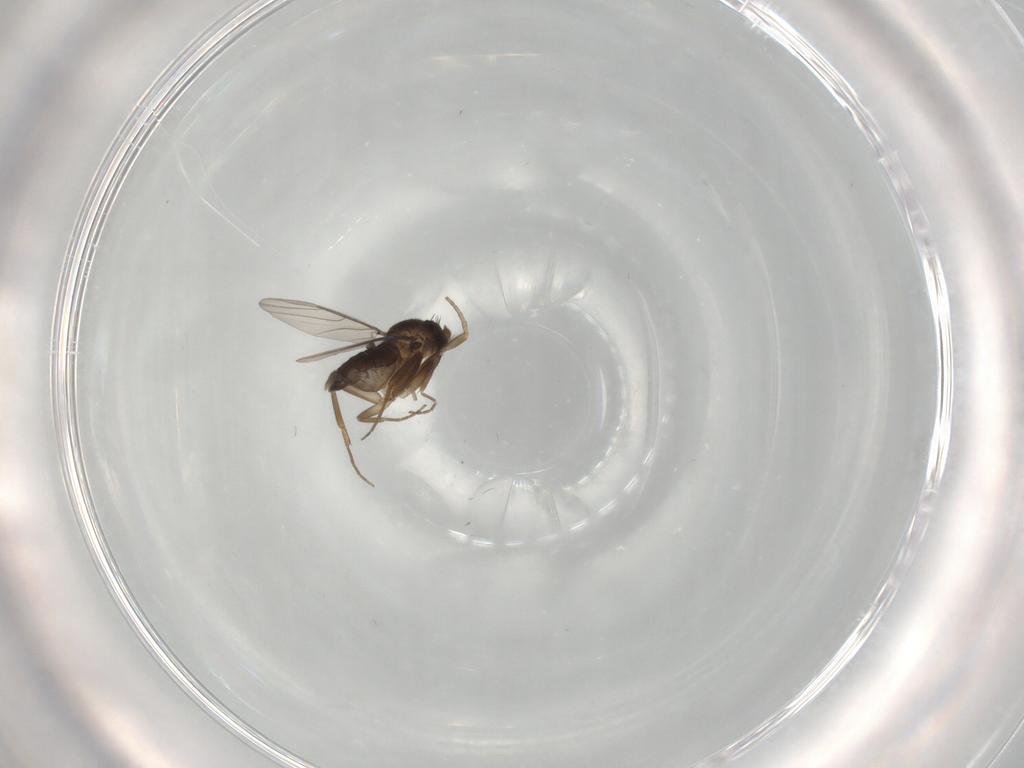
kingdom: Animalia
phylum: Arthropoda
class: Insecta
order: Diptera
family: Phoridae
